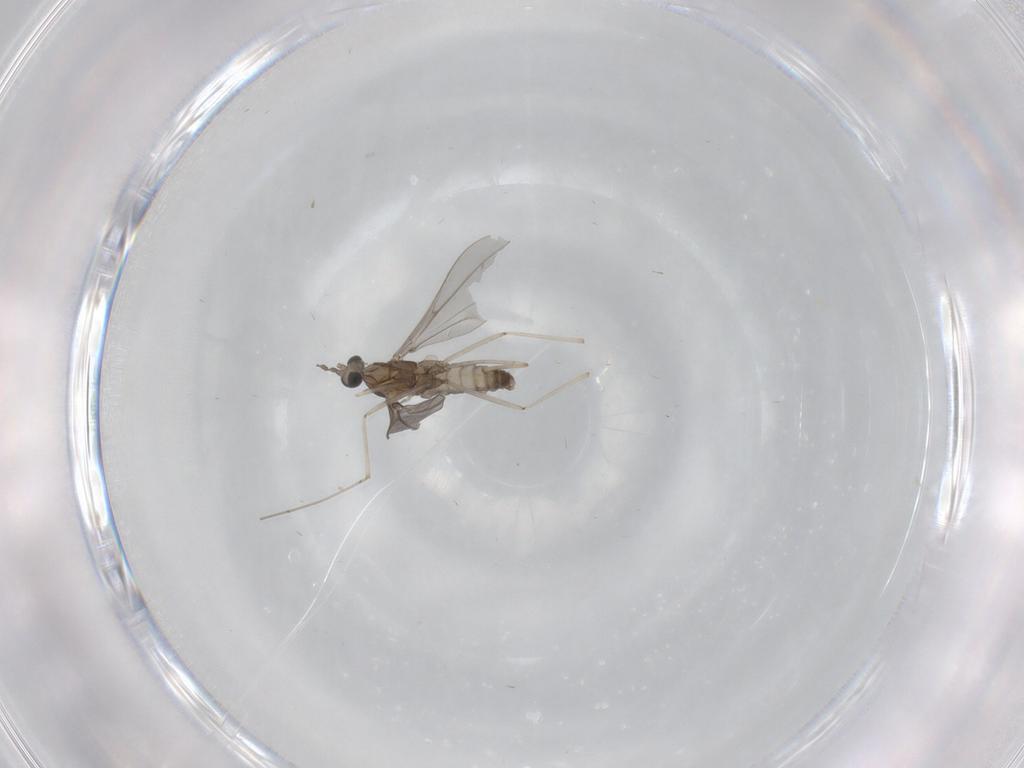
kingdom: Animalia
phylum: Arthropoda
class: Insecta
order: Diptera
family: Cecidomyiidae
